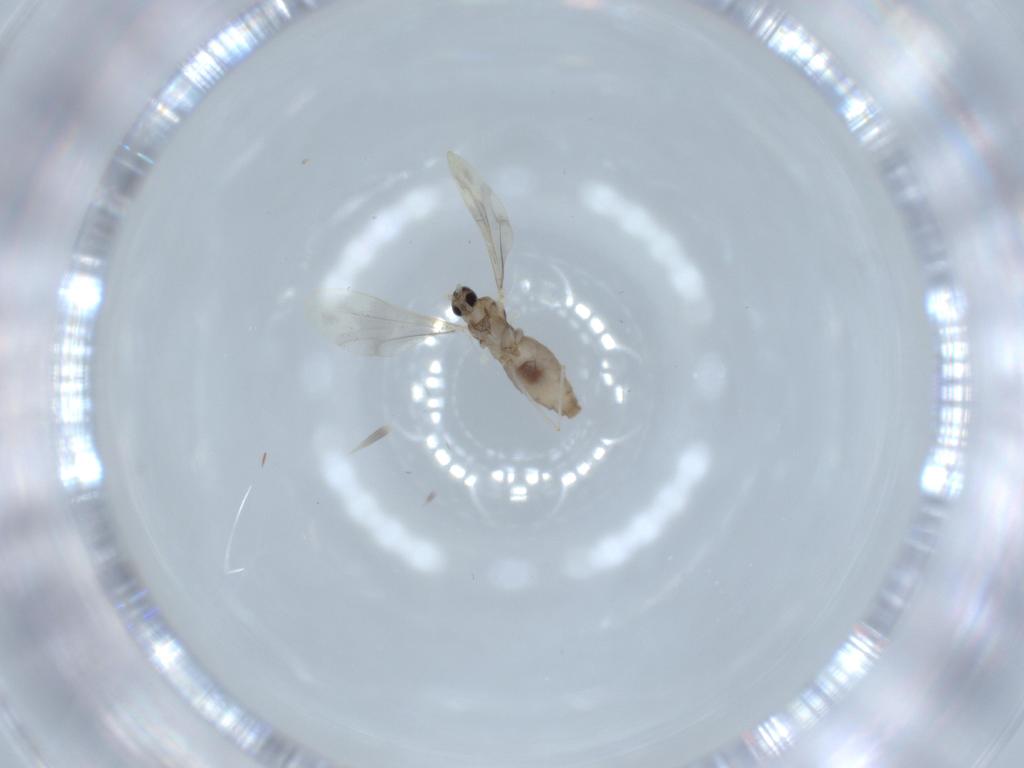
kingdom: Animalia
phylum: Arthropoda
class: Insecta
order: Diptera
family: Cecidomyiidae
